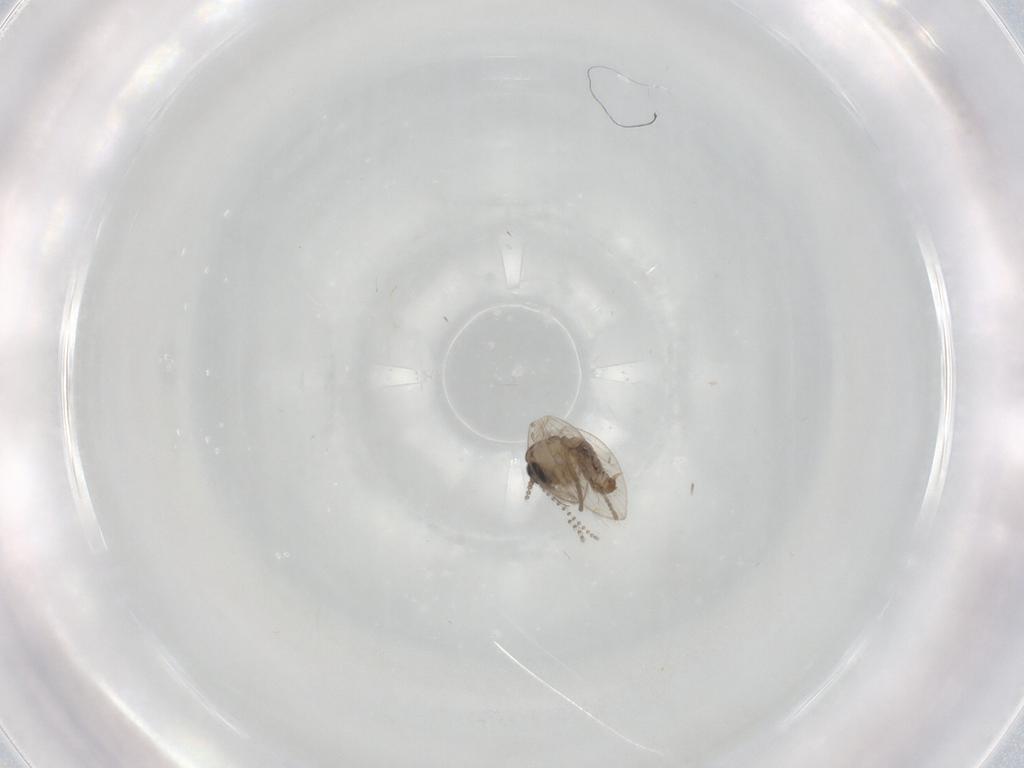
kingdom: Animalia
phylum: Arthropoda
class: Insecta
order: Diptera
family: Psychodidae
